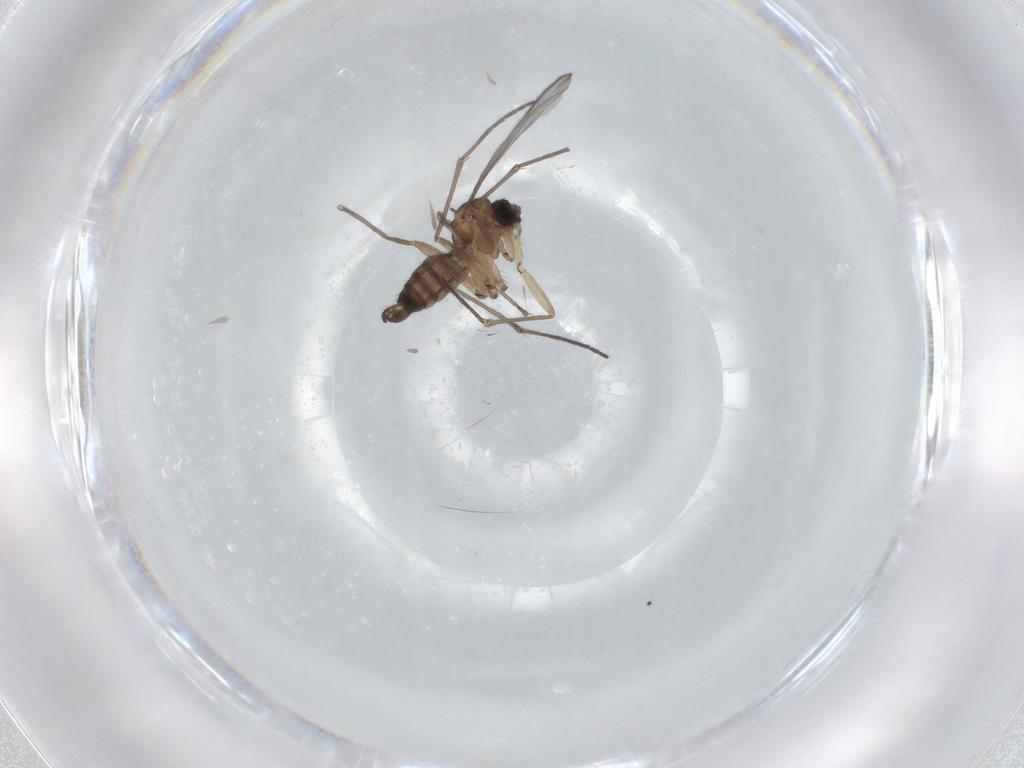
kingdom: Animalia
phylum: Arthropoda
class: Insecta
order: Diptera
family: Sciaridae
